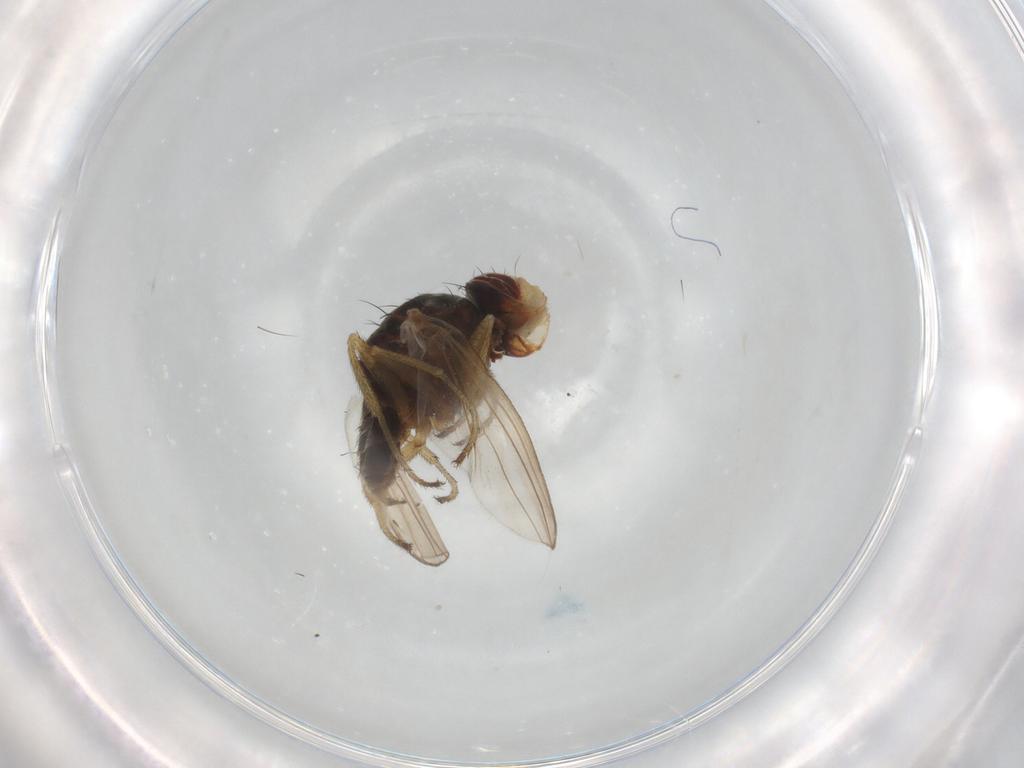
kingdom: Animalia
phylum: Arthropoda
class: Insecta
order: Diptera
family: Canacidae
